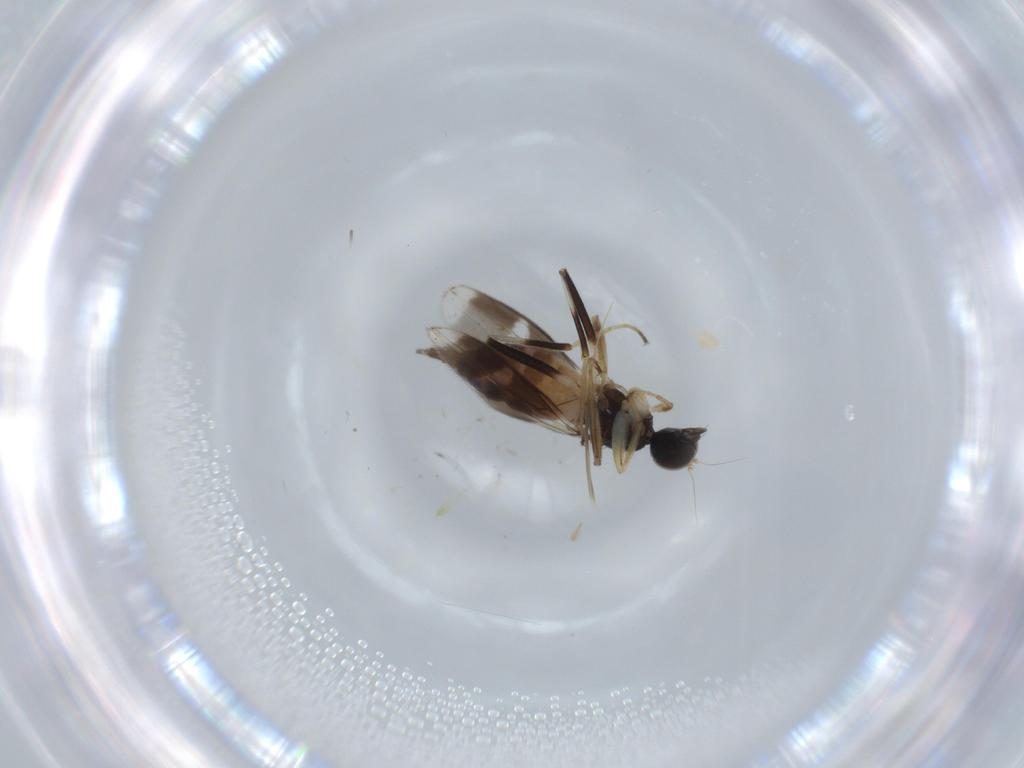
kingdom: Animalia
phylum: Arthropoda
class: Insecta
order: Diptera
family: Hybotidae
